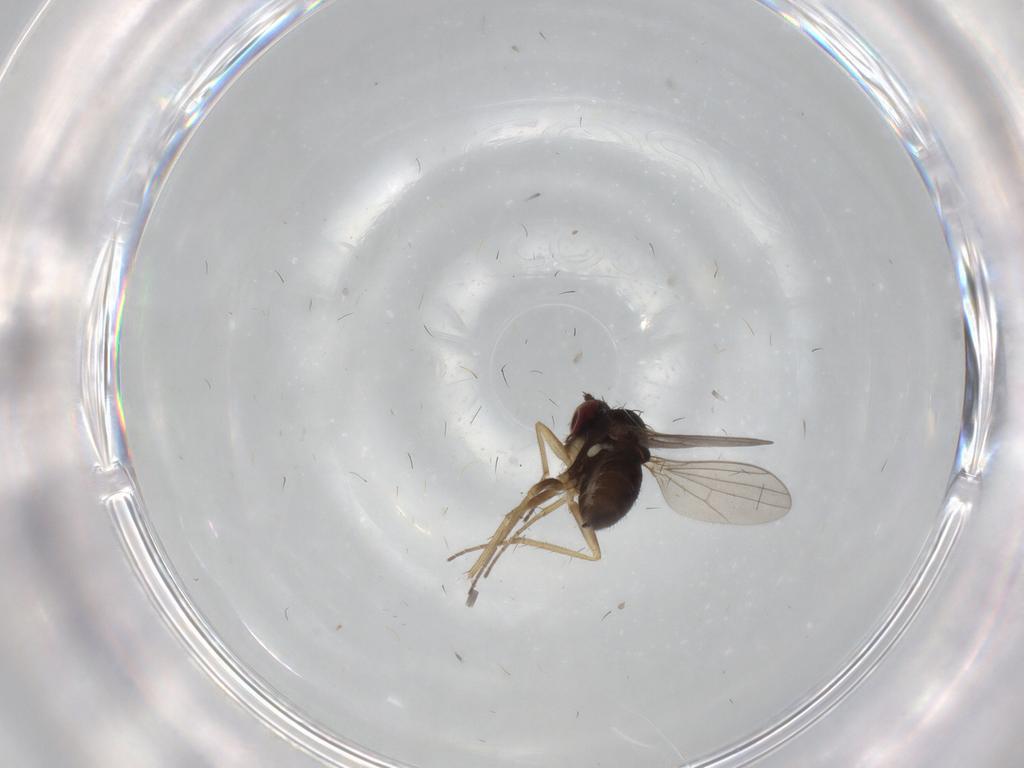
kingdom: Animalia
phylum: Arthropoda
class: Insecta
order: Diptera
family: Dolichopodidae
